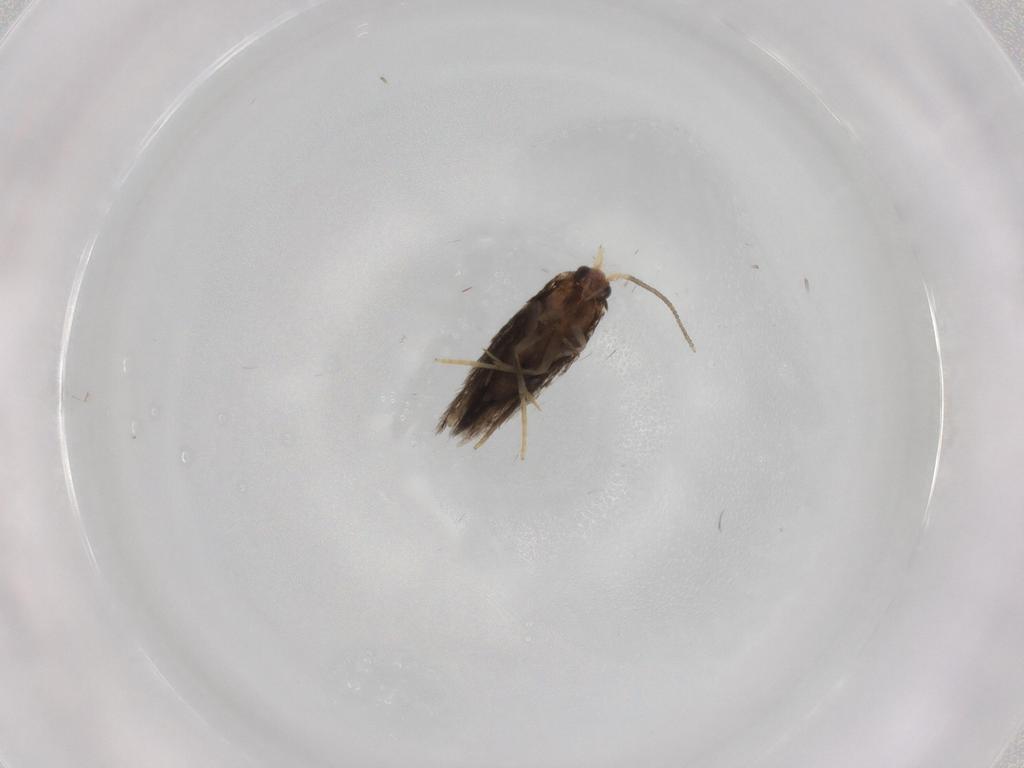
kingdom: Animalia
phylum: Arthropoda
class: Insecta
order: Lepidoptera
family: Nepticulidae
